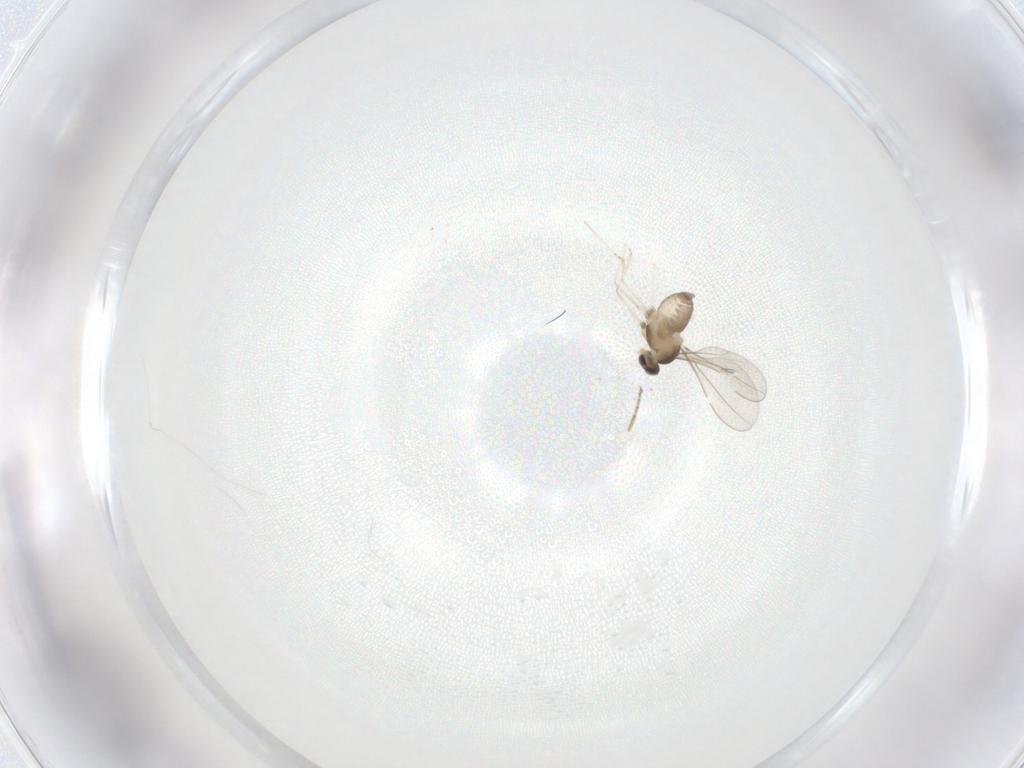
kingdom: Animalia
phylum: Arthropoda
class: Insecta
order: Diptera
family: Cecidomyiidae
